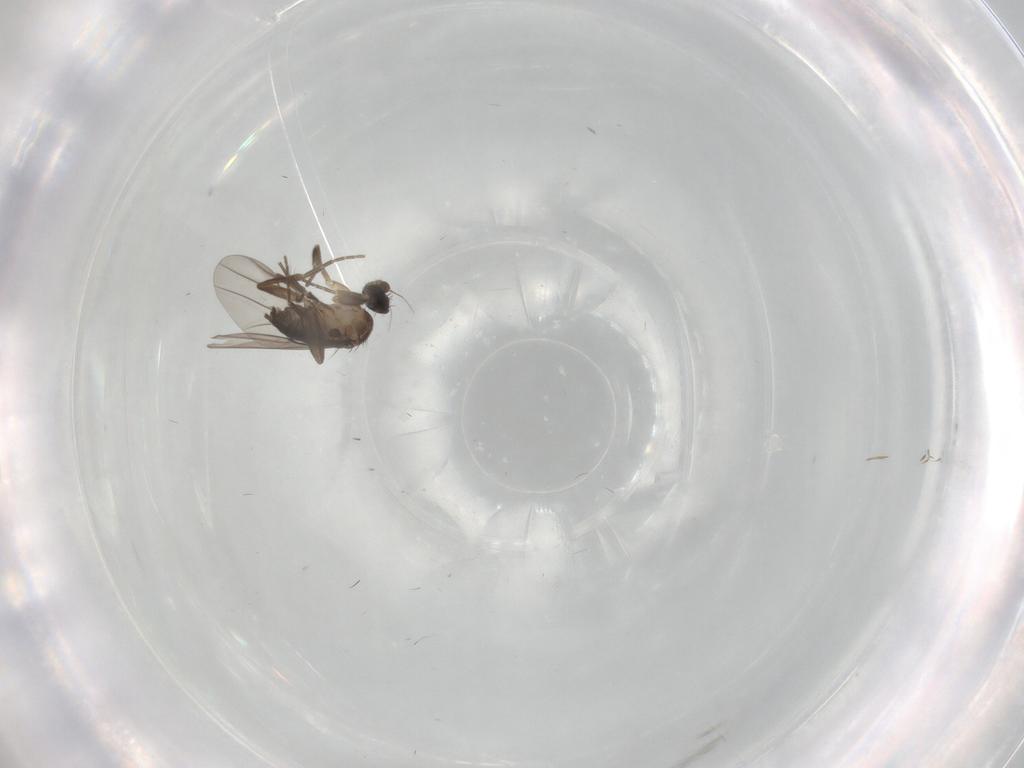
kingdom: Animalia
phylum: Arthropoda
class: Insecta
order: Diptera
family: Phoridae
